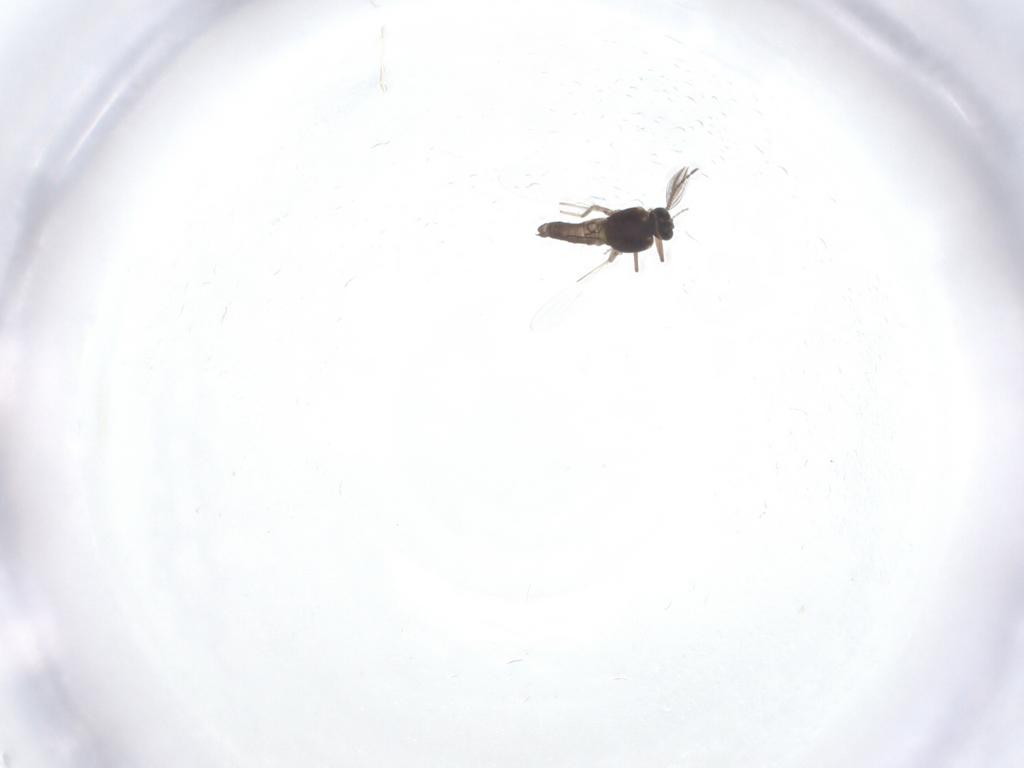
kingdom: Animalia
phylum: Arthropoda
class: Insecta
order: Diptera
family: Ceratopogonidae
